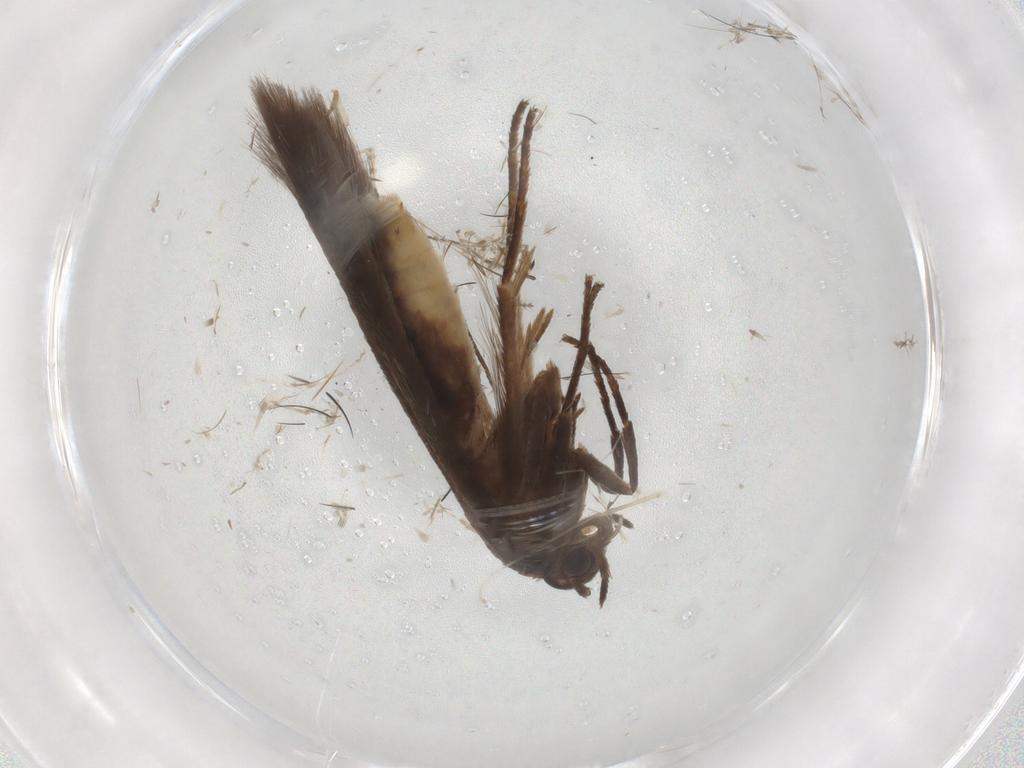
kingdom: Animalia
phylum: Arthropoda
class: Insecta
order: Lepidoptera
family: Scythrididae
